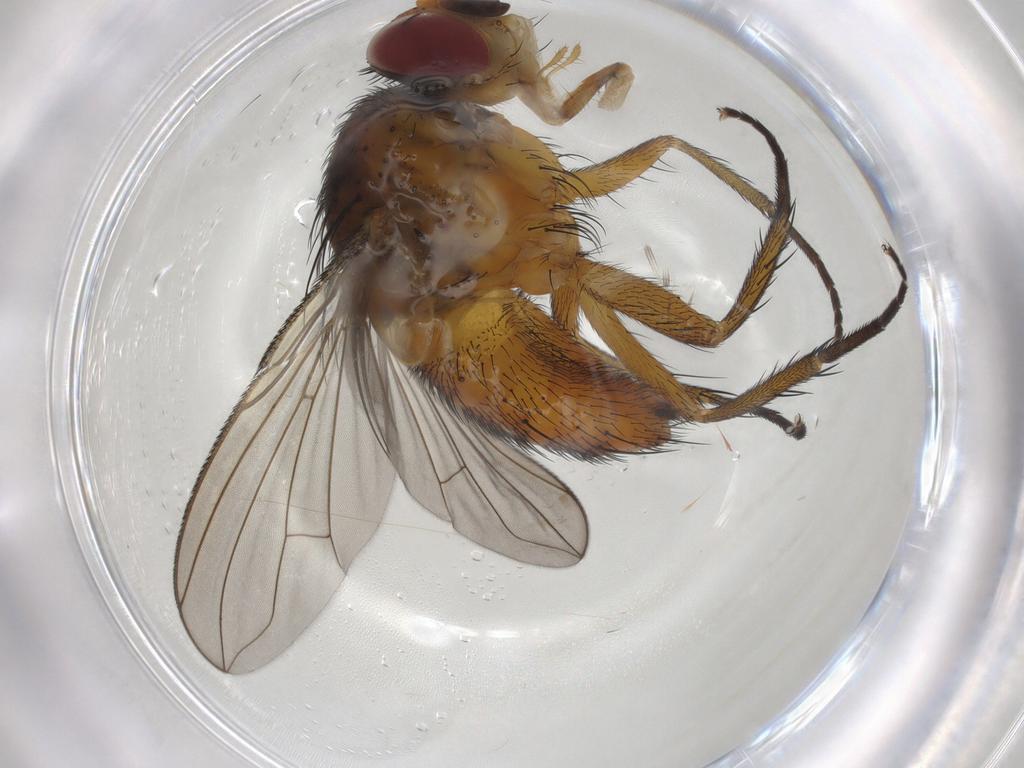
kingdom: Animalia
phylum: Arthropoda
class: Insecta
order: Diptera
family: Tachinidae
